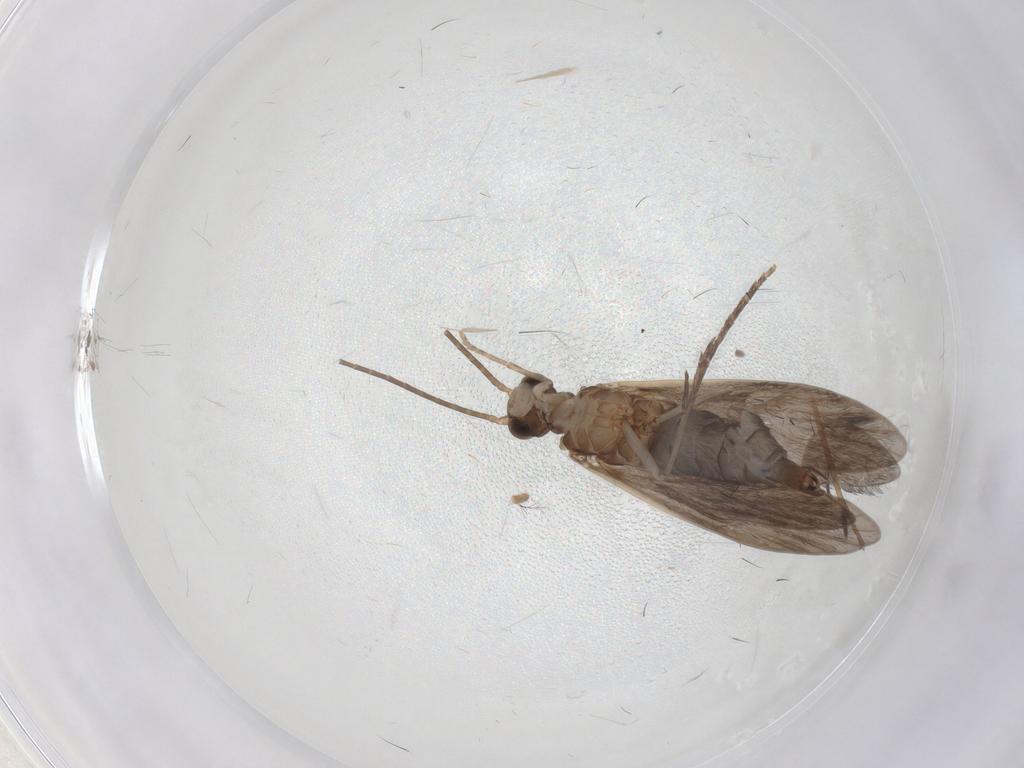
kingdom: Animalia
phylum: Arthropoda
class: Insecta
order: Trichoptera
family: Xiphocentronidae
